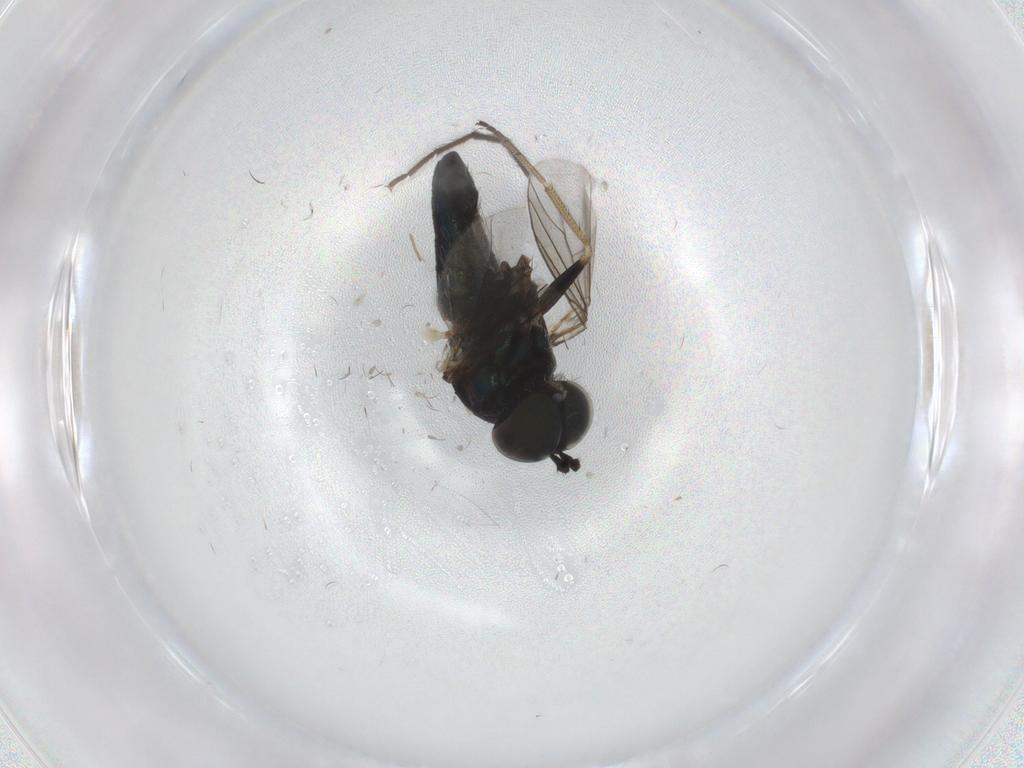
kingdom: Animalia
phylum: Arthropoda
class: Insecta
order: Diptera
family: Dolichopodidae
